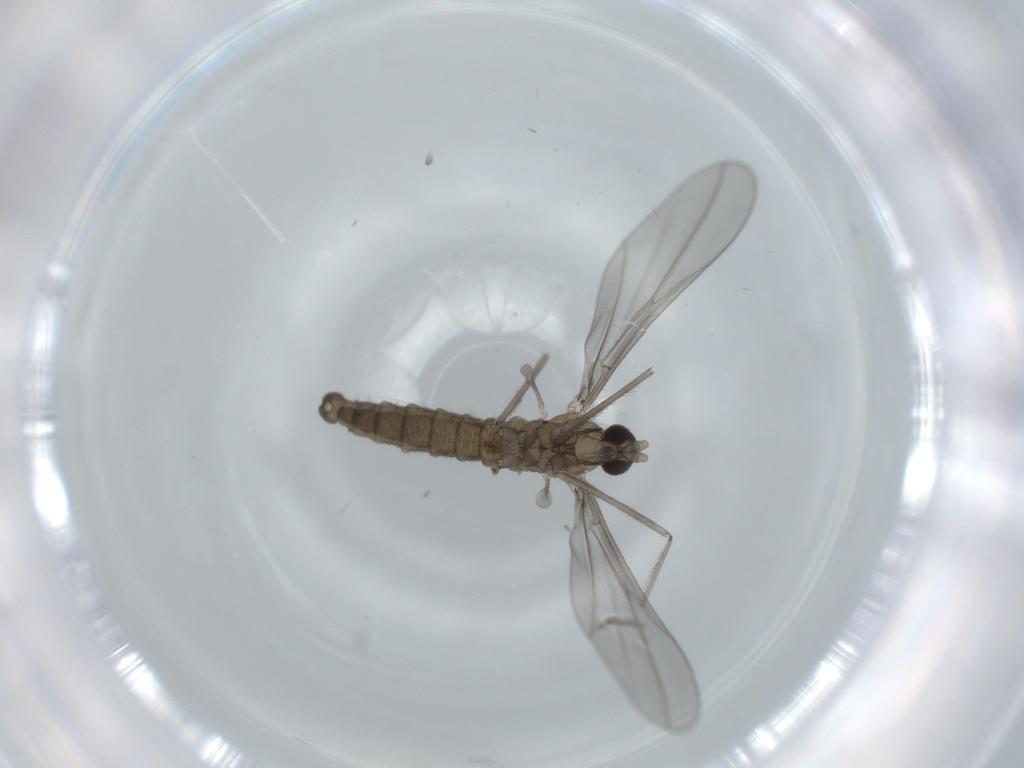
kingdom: Animalia
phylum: Arthropoda
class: Insecta
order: Diptera
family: Cecidomyiidae
